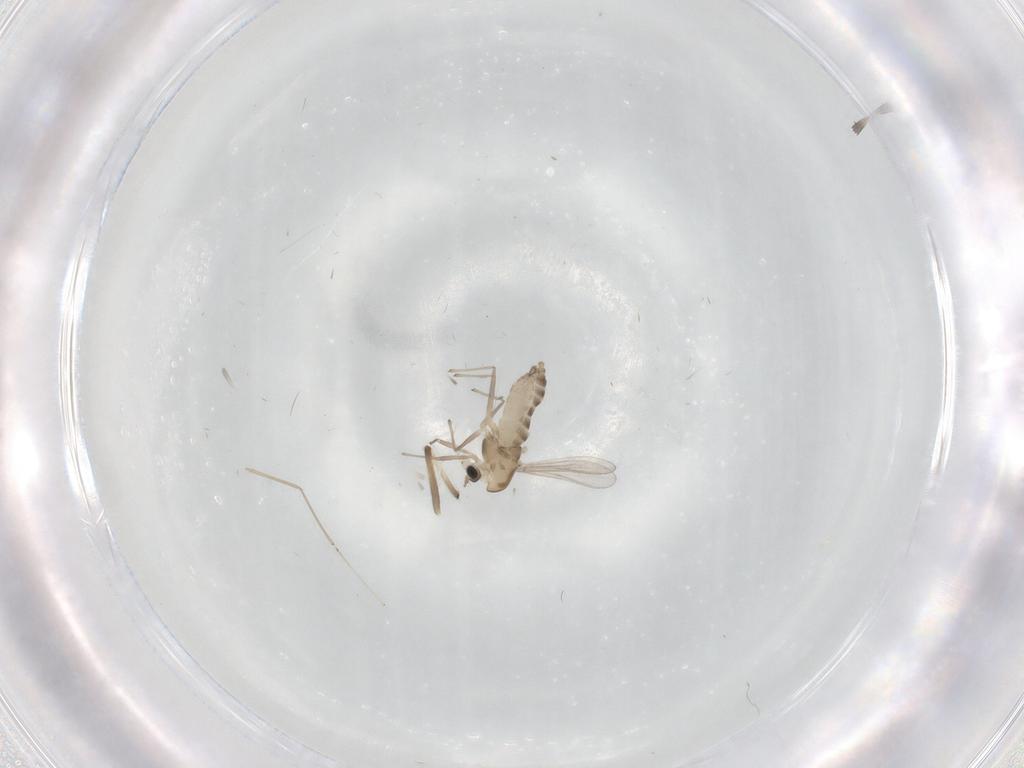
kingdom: Animalia
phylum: Arthropoda
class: Insecta
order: Diptera
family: Chironomidae
